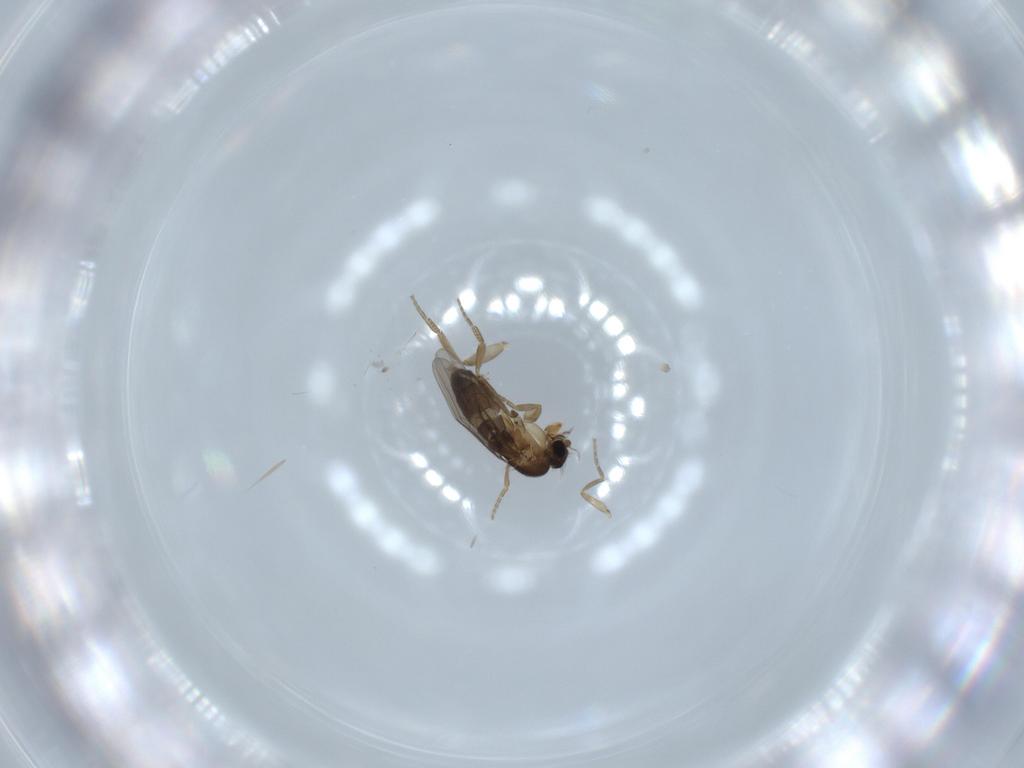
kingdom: Animalia
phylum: Arthropoda
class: Insecta
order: Diptera
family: Phoridae
